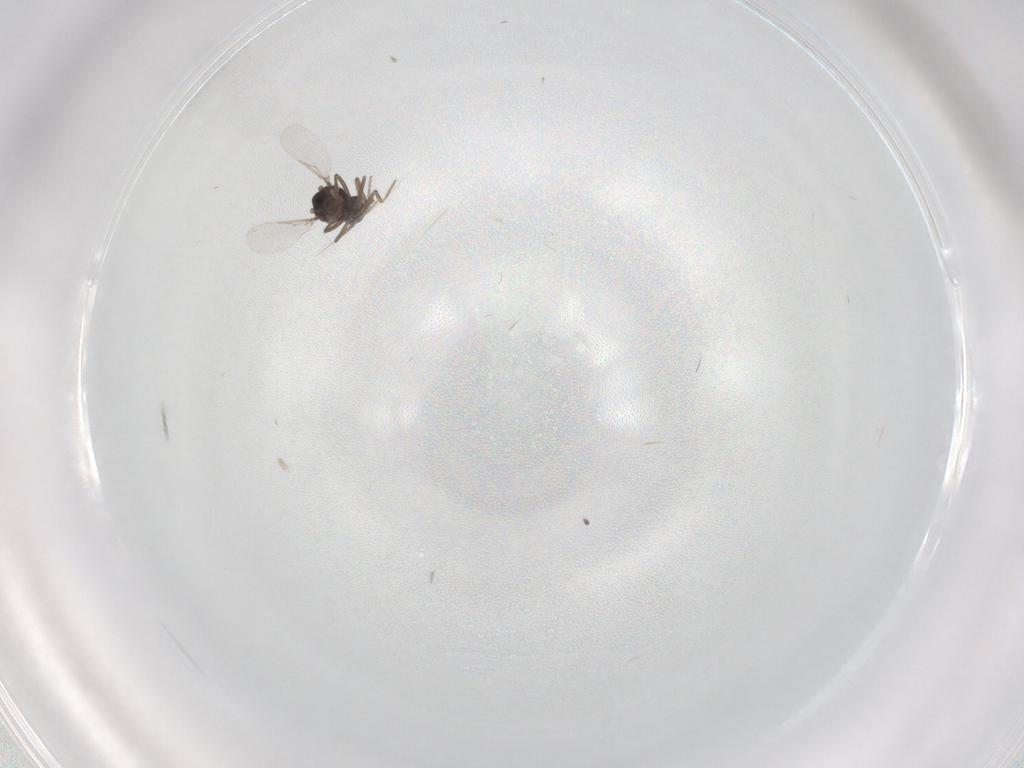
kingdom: Animalia
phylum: Arthropoda
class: Insecta
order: Diptera
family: Ceratopogonidae
